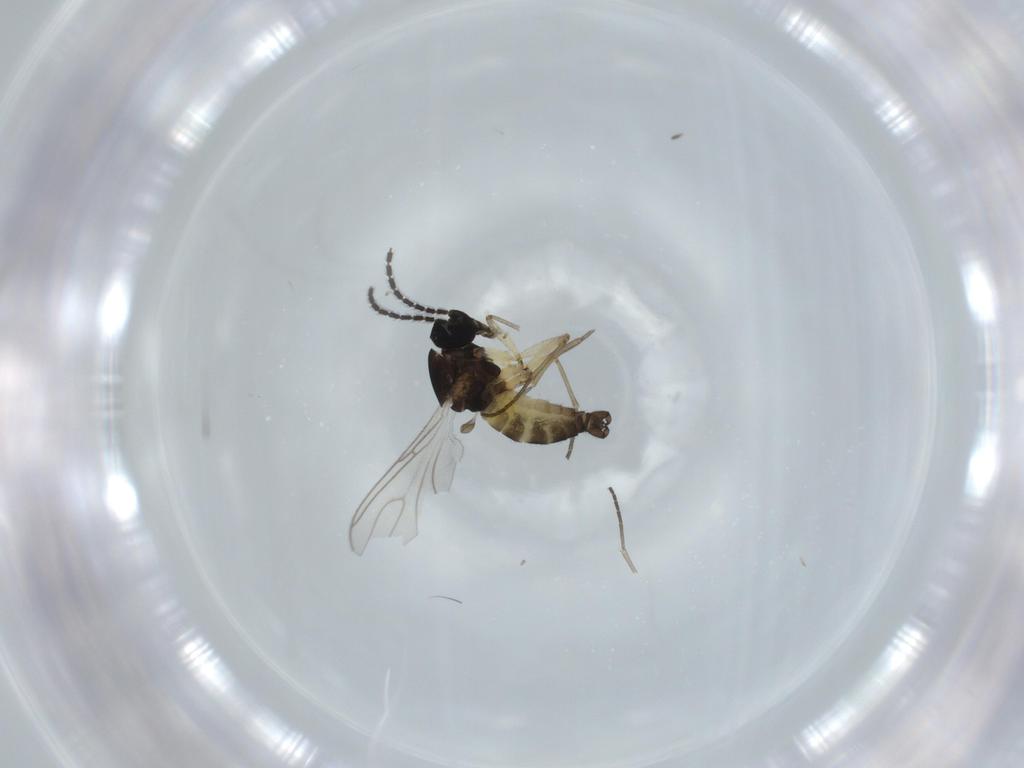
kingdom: Animalia
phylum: Arthropoda
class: Insecta
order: Diptera
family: Sciaridae
